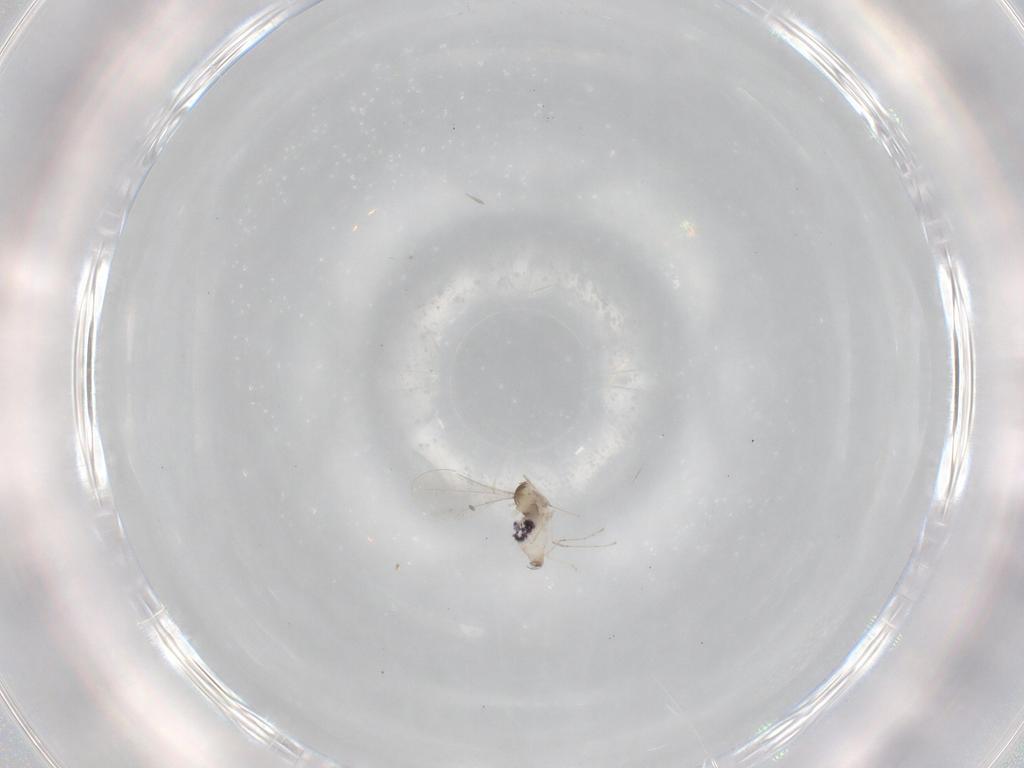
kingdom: Animalia
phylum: Arthropoda
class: Insecta
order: Diptera
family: Cecidomyiidae
